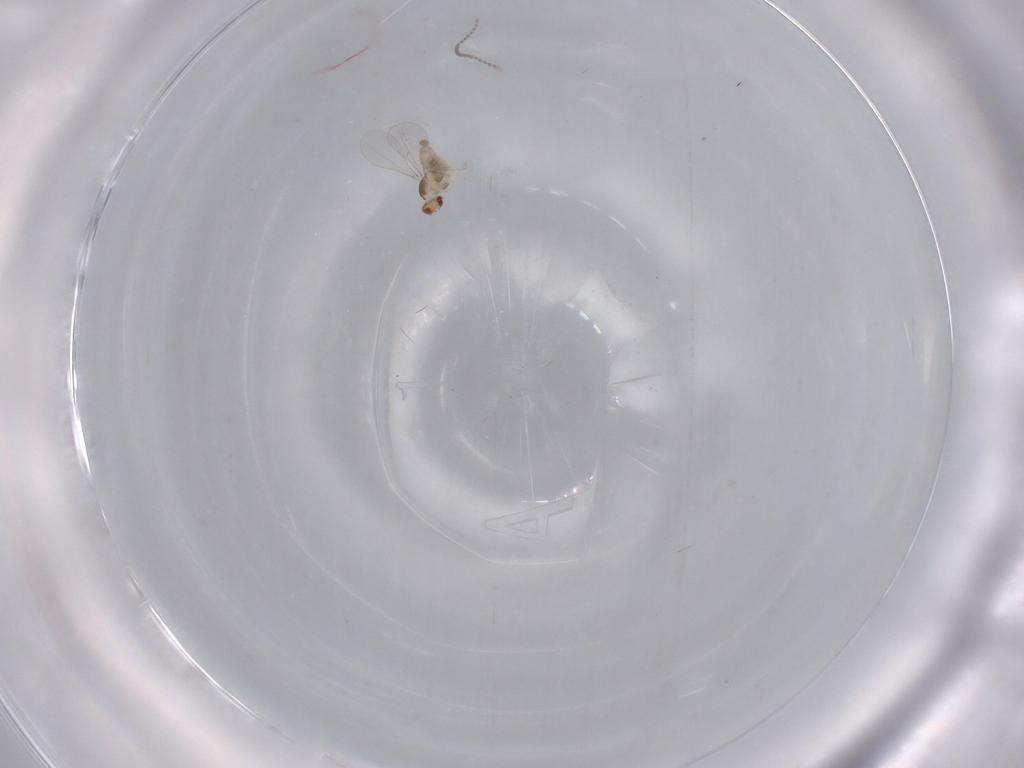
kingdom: Animalia
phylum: Arthropoda
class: Insecta
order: Diptera
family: Cecidomyiidae
